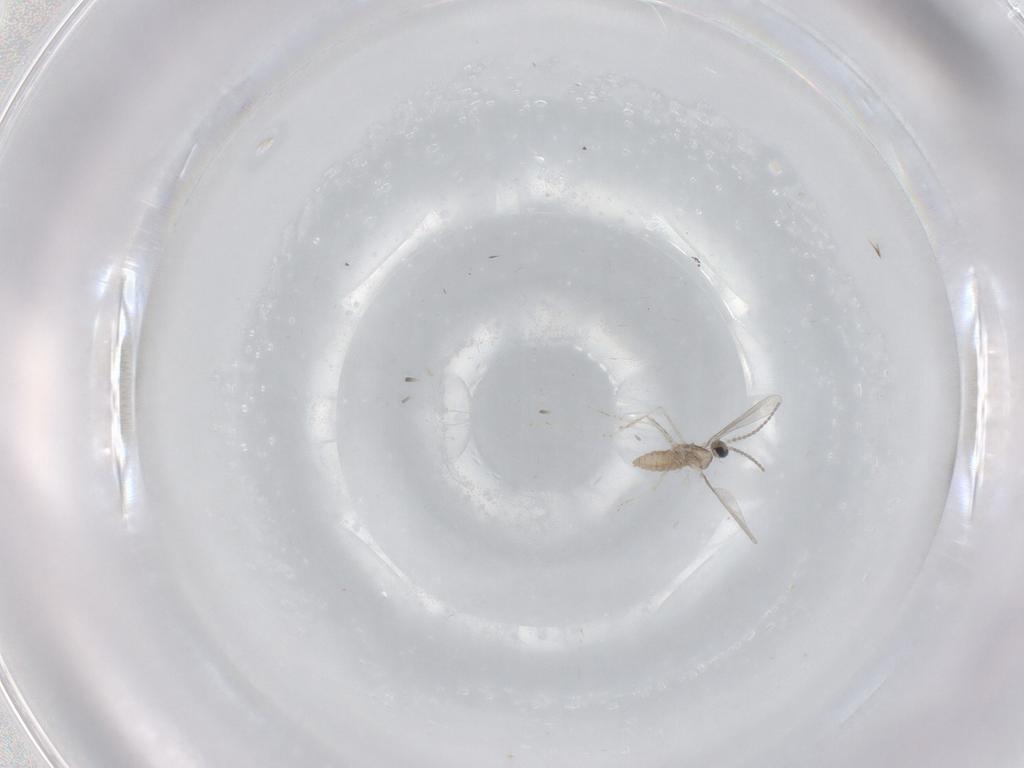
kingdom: Animalia
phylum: Arthropoda
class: Insecta
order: Diptera
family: Cecidomyiidae
